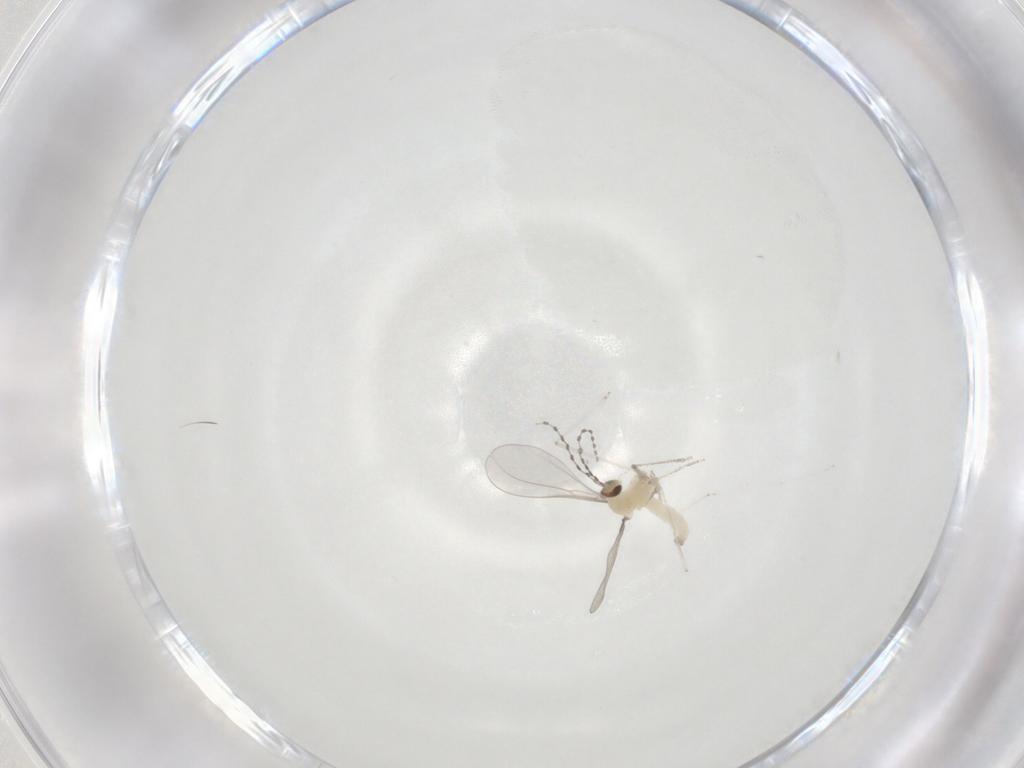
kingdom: Animalia
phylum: Arthropoda
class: Insecta
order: Diptera
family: Cecidomyiidae
